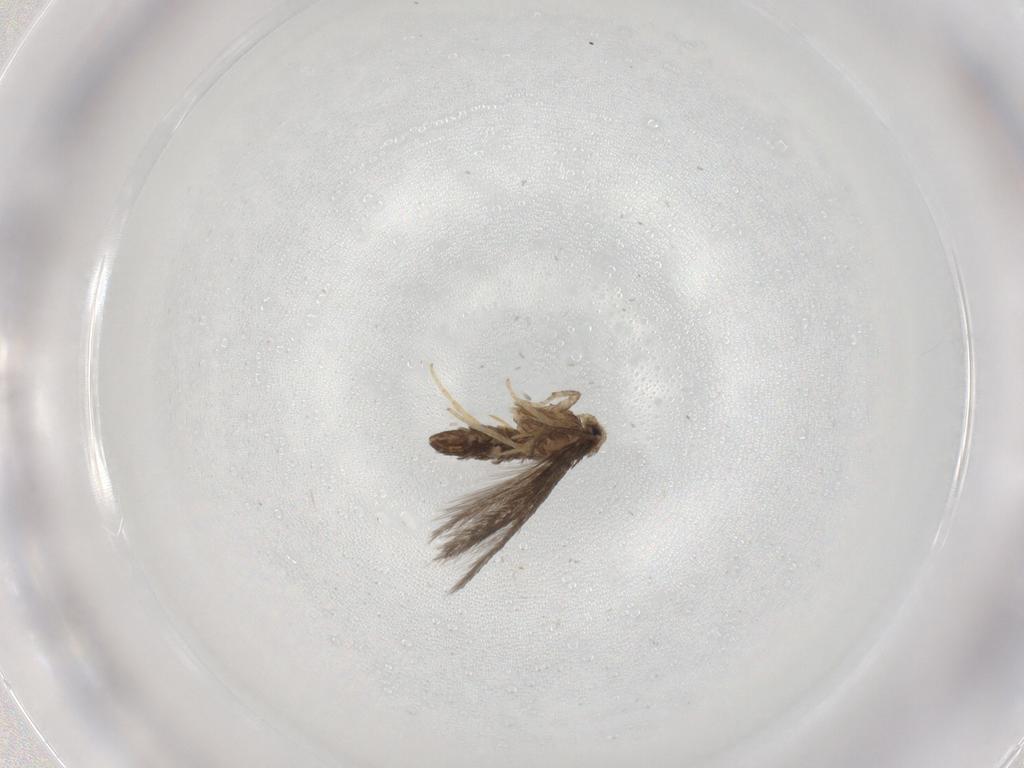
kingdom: Animalia
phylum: Arthropoda
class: Insecta
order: Lepidoptera
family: Nepticulidae
